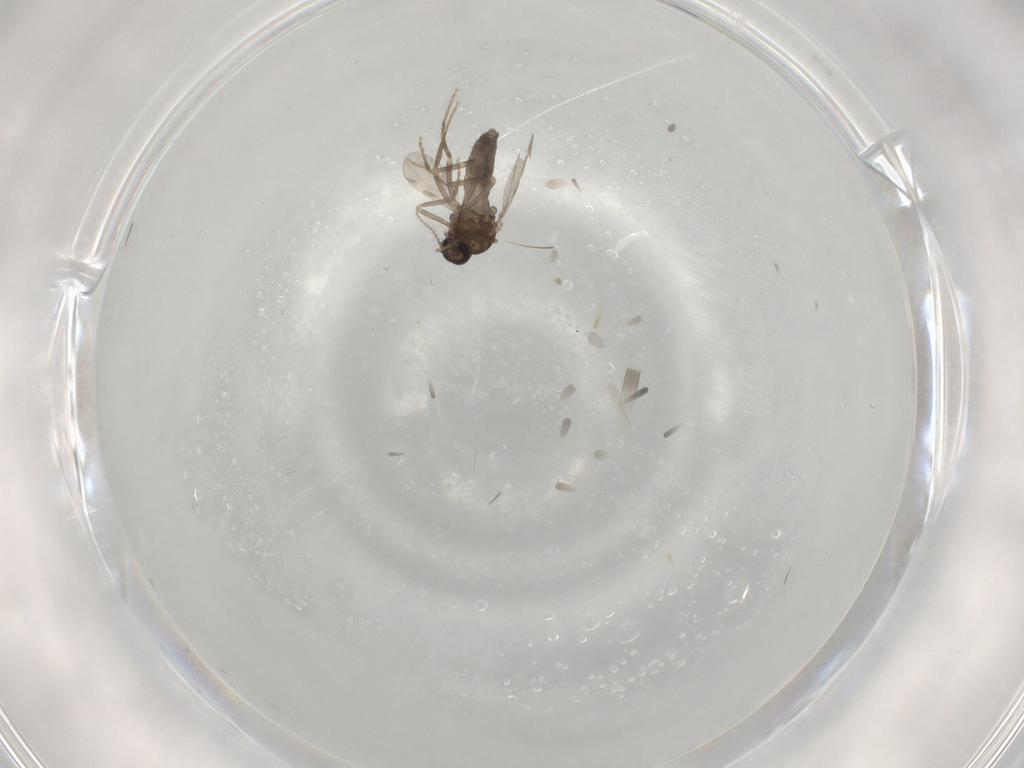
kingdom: Animalia
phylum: Arthropoda
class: Insecta
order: Diptera
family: Ceratopogonidae
